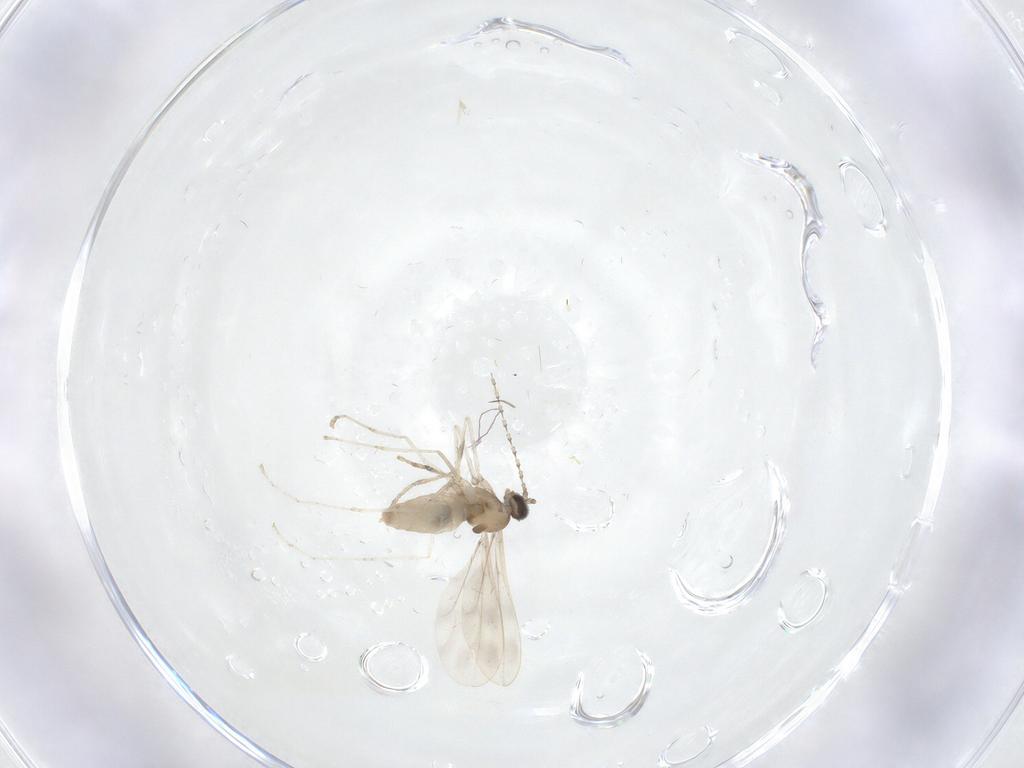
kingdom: Animalia
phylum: Arthropoda
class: Insecta
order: Diptera
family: Cecidomyiidae
